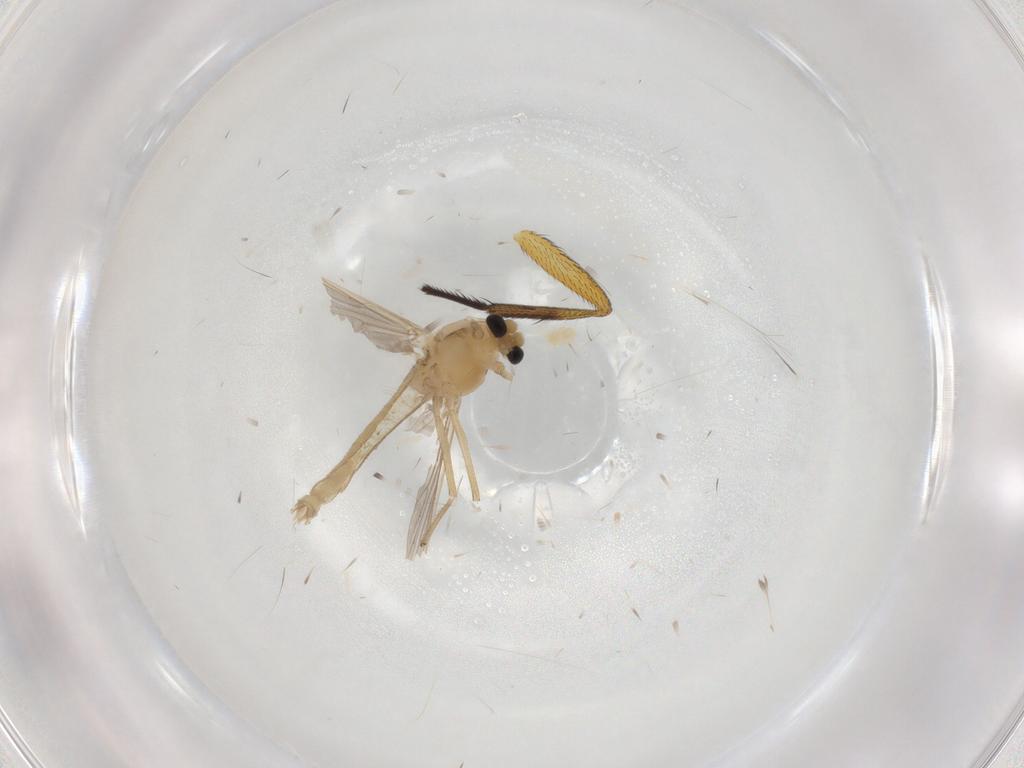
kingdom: Animalia
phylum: Arthropoda
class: Insecta
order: Diptera
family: Chironomidae
